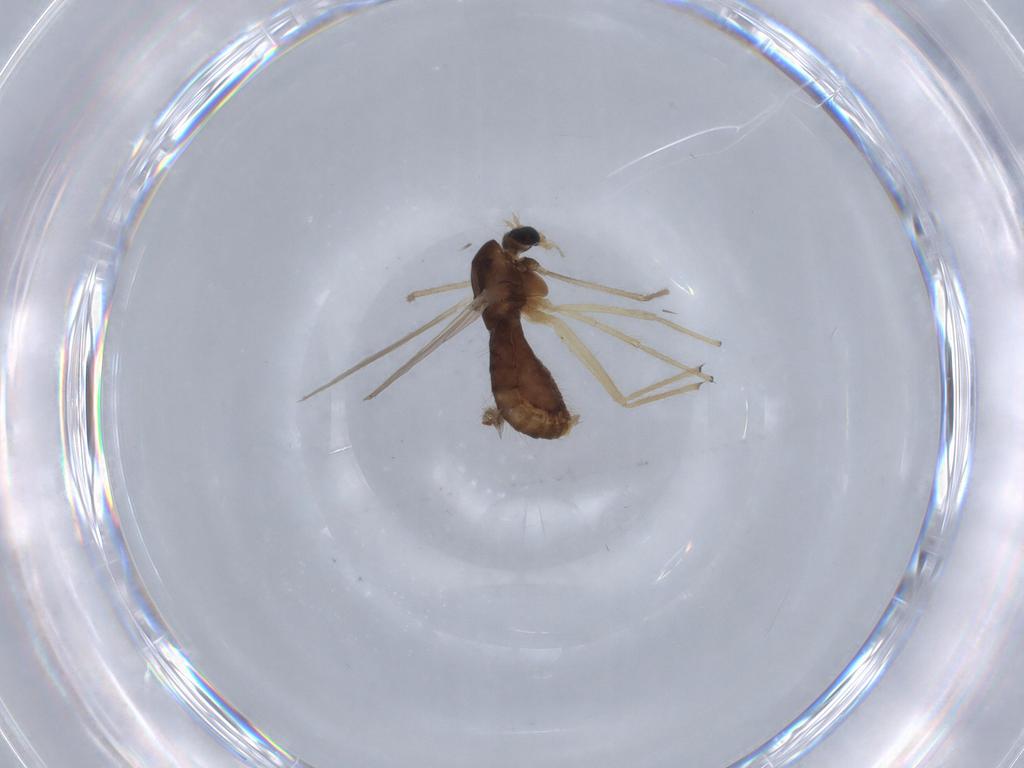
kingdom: Animalia
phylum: Arthropoda
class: Insecta
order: Diptera
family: Chironomidae
